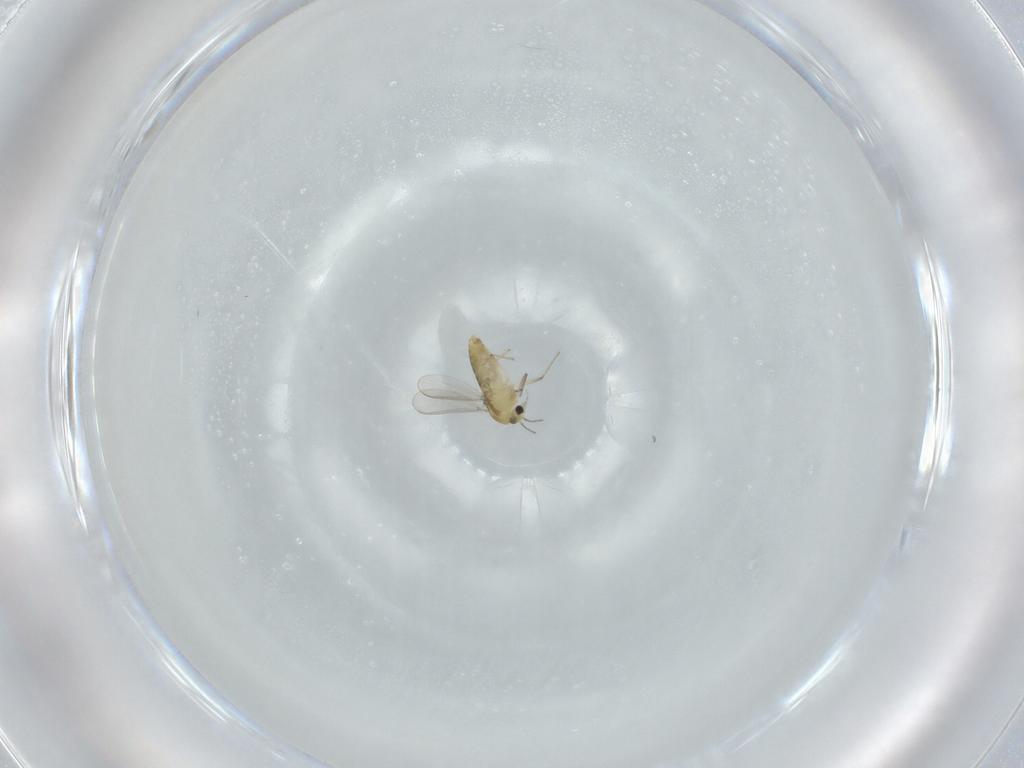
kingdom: Animalia
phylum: Arthropoda
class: Insecta
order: Diptera
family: Chironomidae
